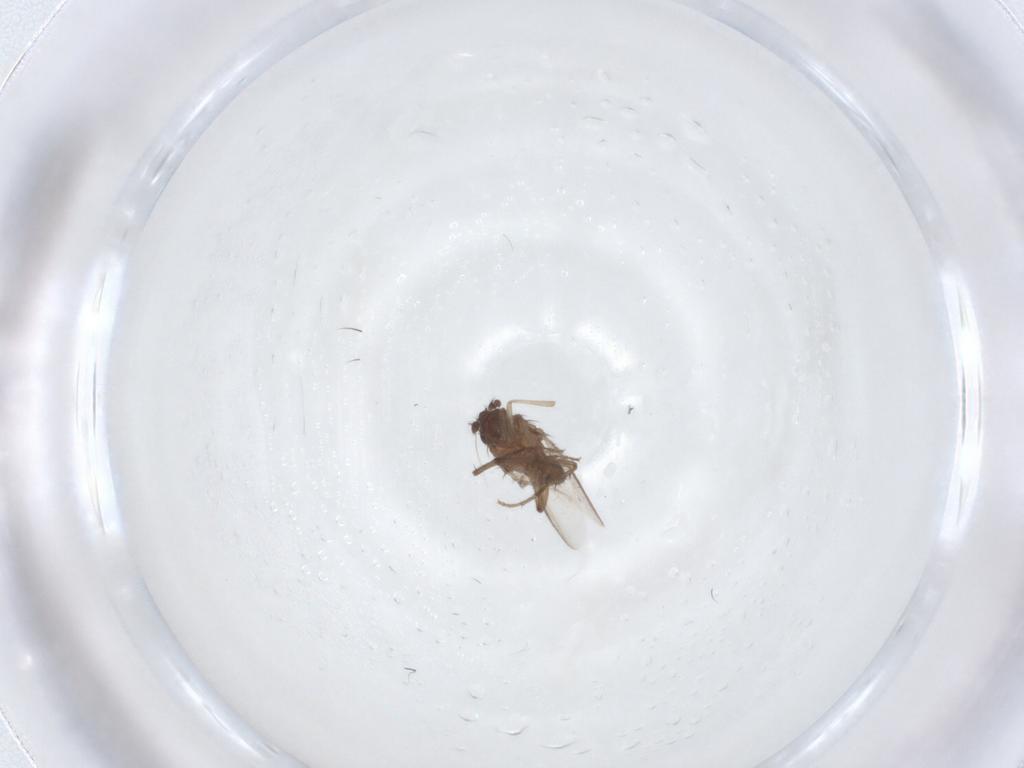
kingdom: Animalia
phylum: Arthropoda
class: Insecta
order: Diptera
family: Sphaeroceridae
